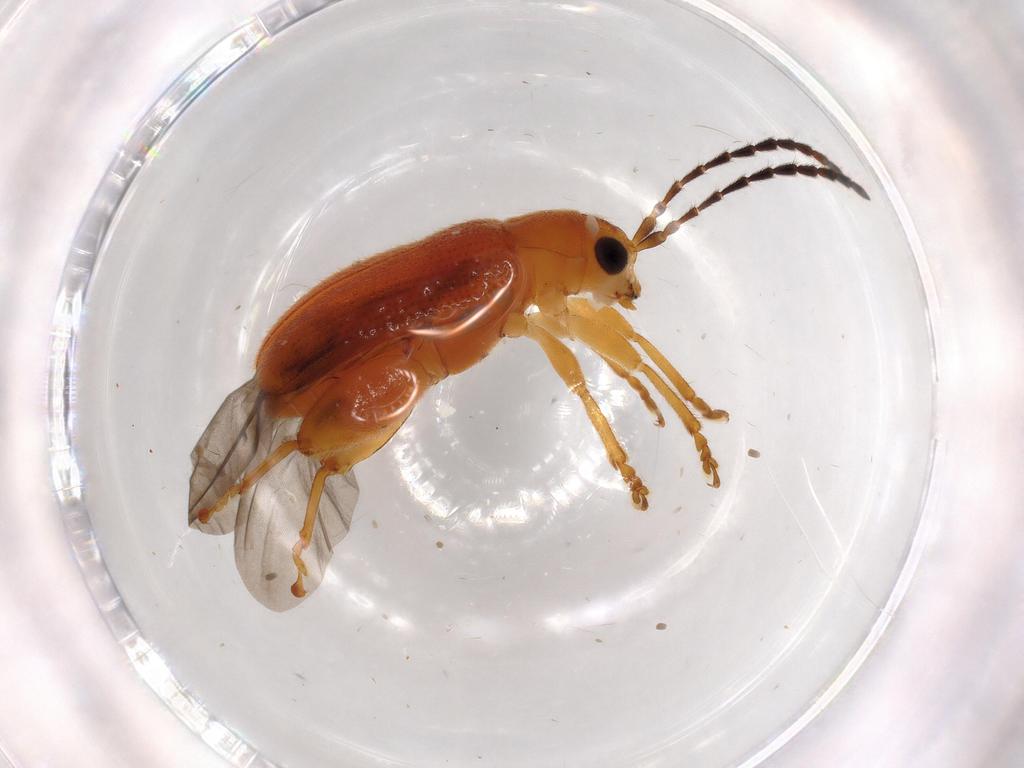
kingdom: Animalia
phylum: Arthropoda
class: Insecta
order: Coleoptera
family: Chrysomelidae
